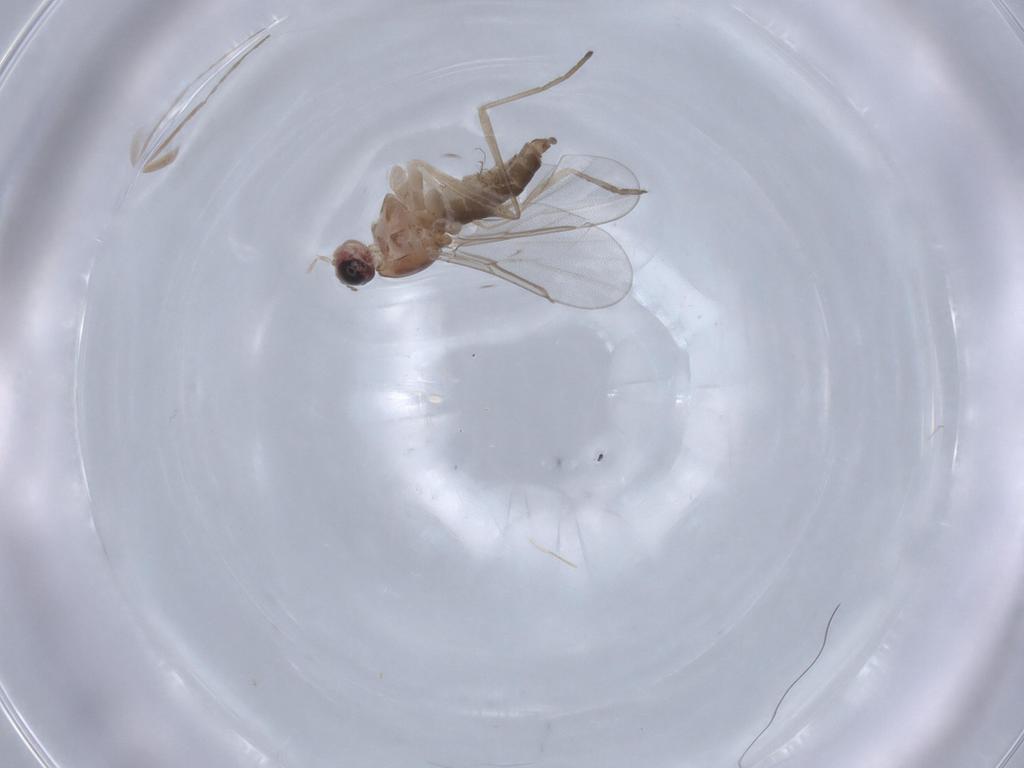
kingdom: Animalia
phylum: Arthropoda
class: Insecta
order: Diptera
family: Cecidomyiidae
